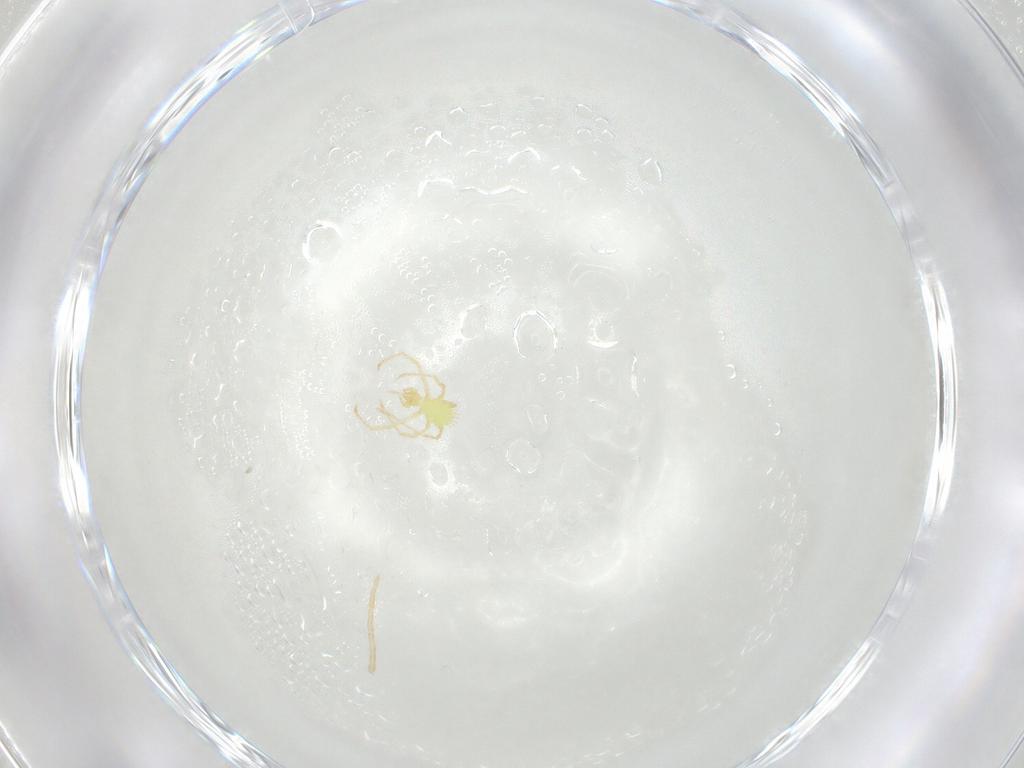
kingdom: Animalia
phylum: Arthropoda
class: Arachnida
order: Trombidiformes
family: Erythraeidae
